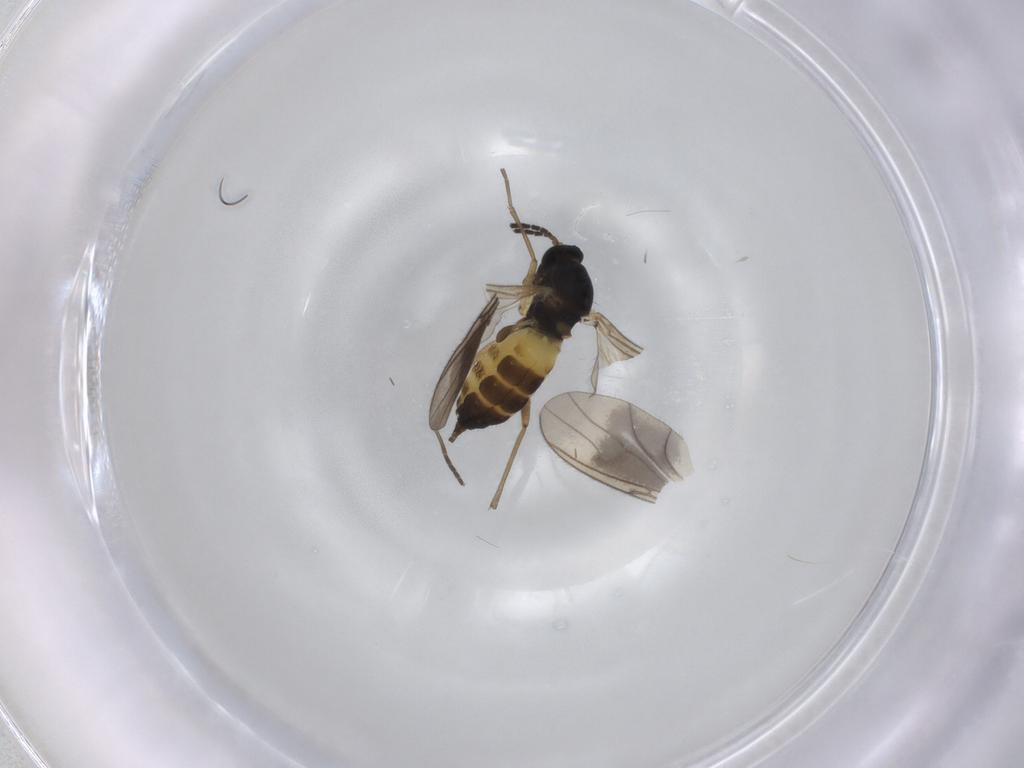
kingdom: Animalia
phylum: Arthropoda
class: Insecta
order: Diptera
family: Sciaridae
